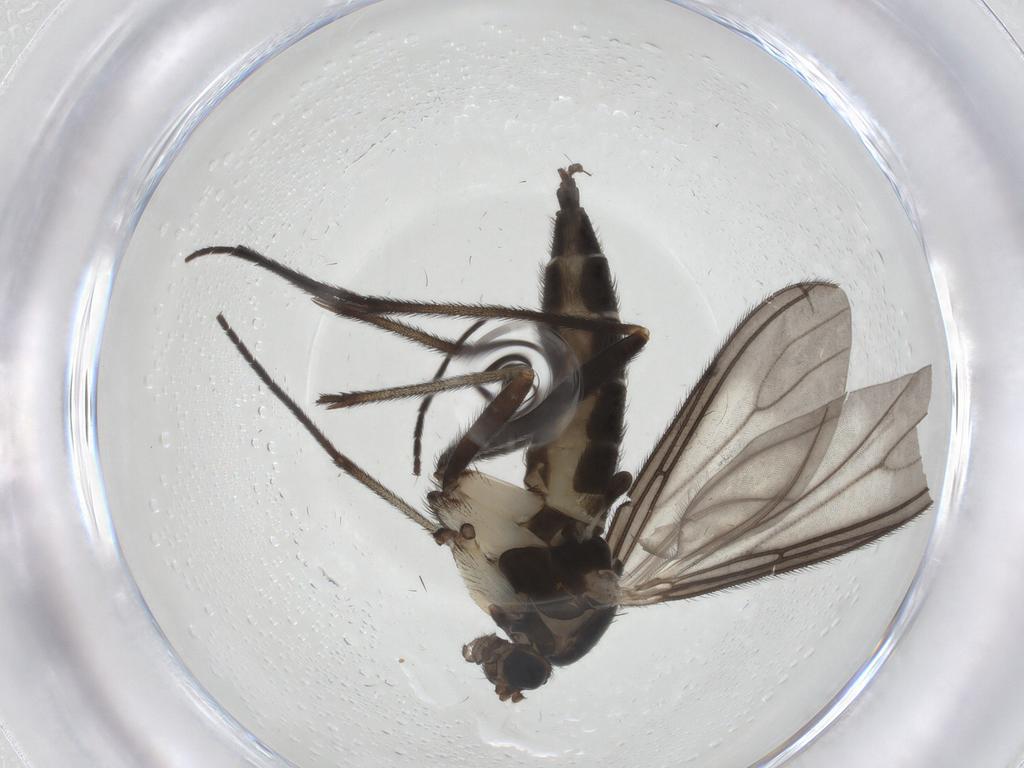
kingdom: Animalia
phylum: Arthropoda
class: Insecta
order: Diptera
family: Sciaridae
